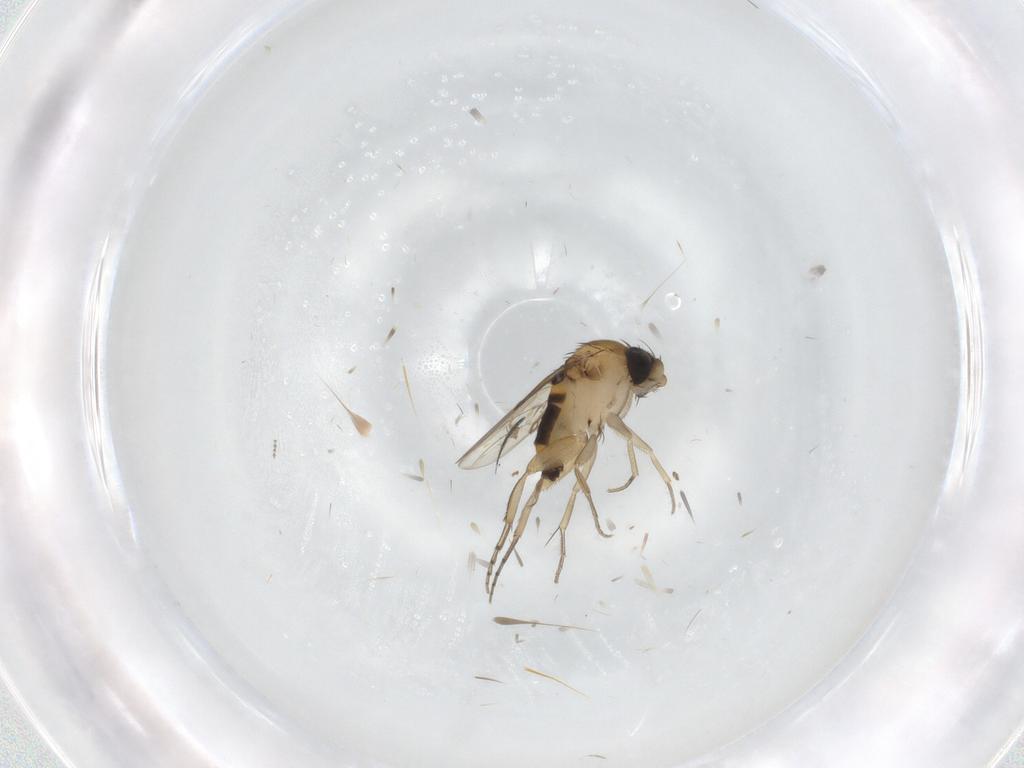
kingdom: Animalia
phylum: Arthropoda
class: Insecta
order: Diptera
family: Phoridae
